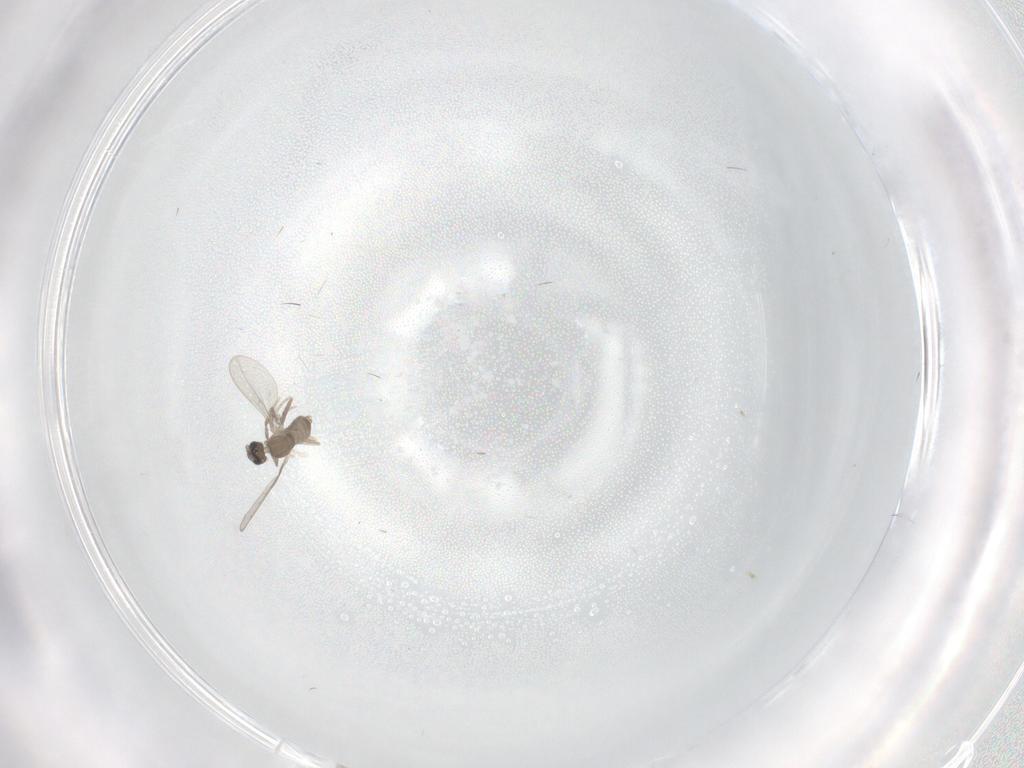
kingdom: Animalia
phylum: Arthropoda
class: Insecta
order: Diptera
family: Cecidomyiidae
